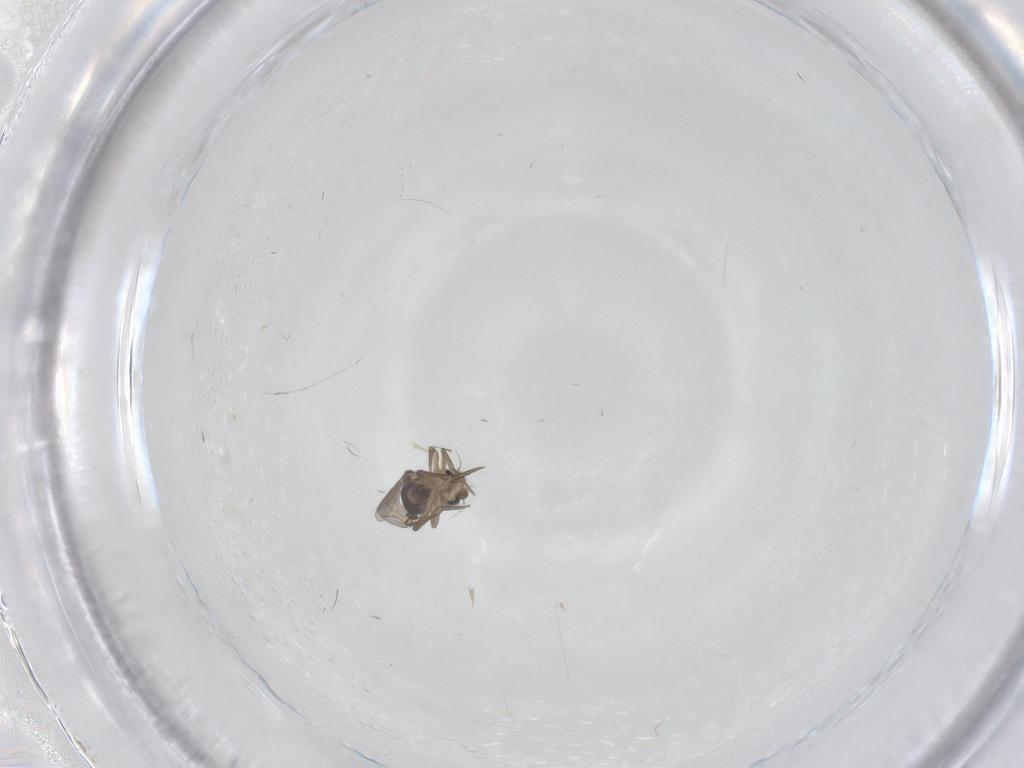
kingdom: Animalia
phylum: Arthropoda
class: Insecta
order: Diptera
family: Phoridae
